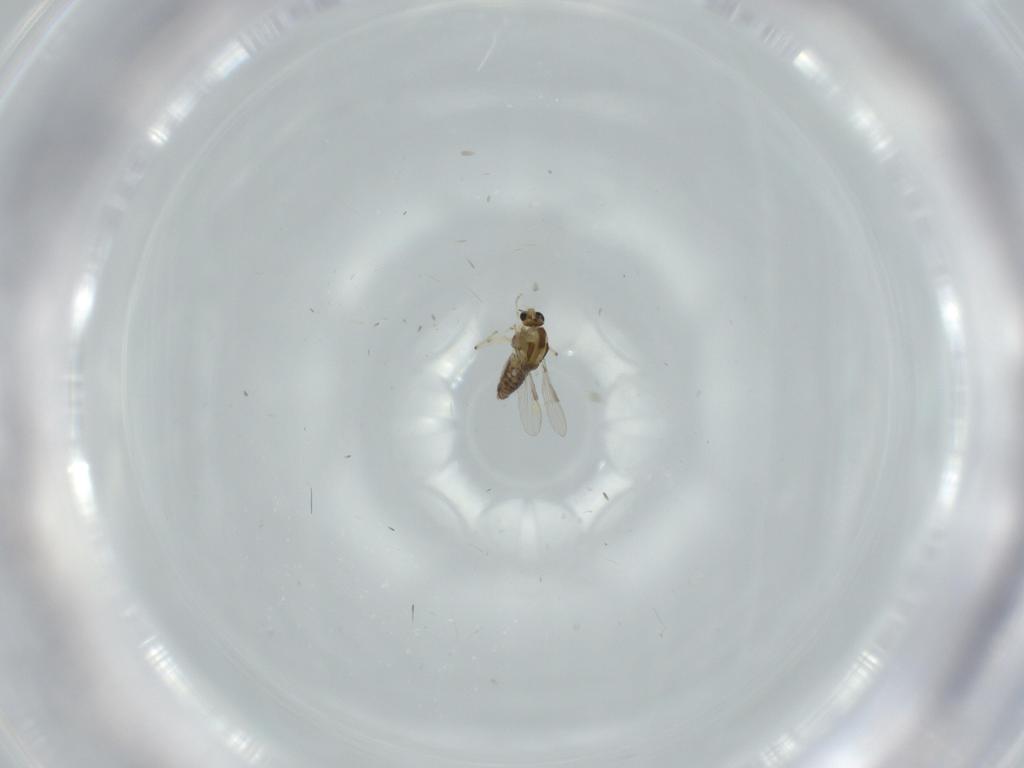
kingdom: Animalia
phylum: Arthropoda
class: Insecta
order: Diptera
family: Chironomidae
